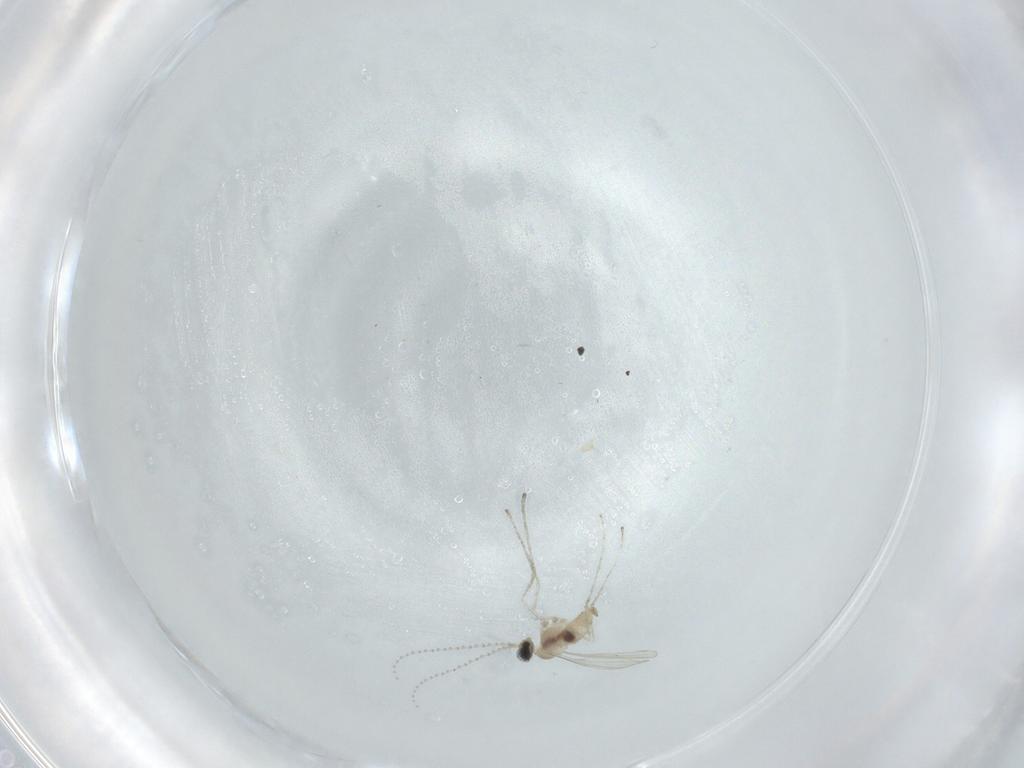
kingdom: Animalia
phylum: Arthropoda
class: Insecta
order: Diptera
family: Cecidomyiidae
